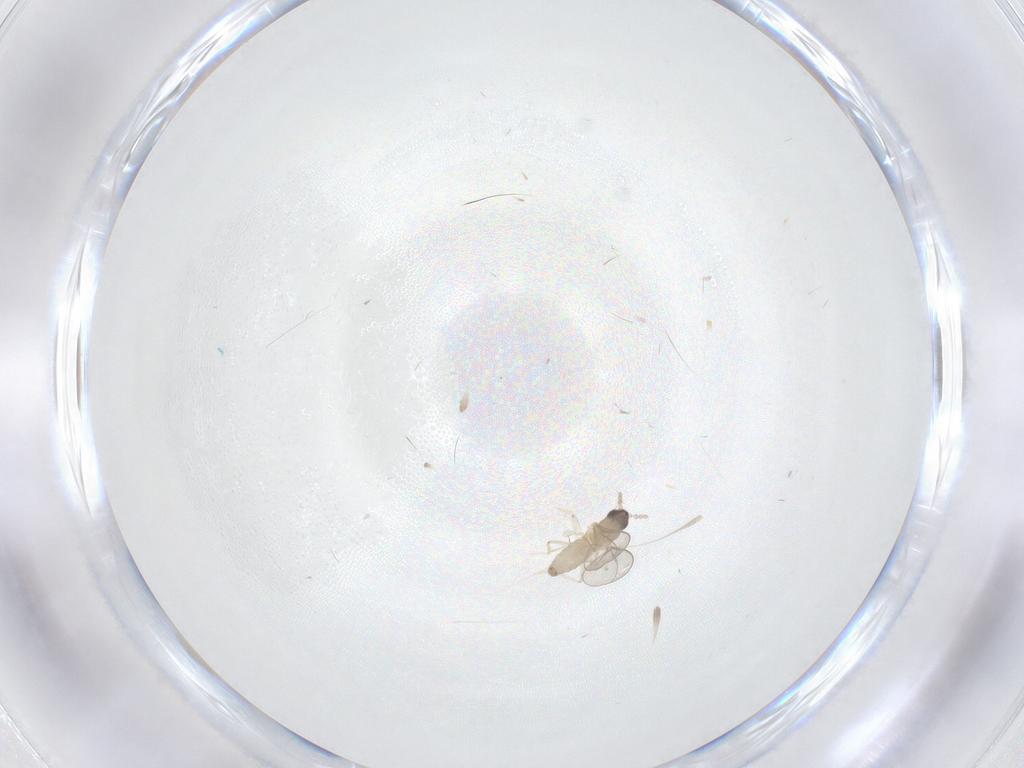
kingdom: Animalia
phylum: Arthropoda
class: Insecta
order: Diptera
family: Cecidomyiidae
